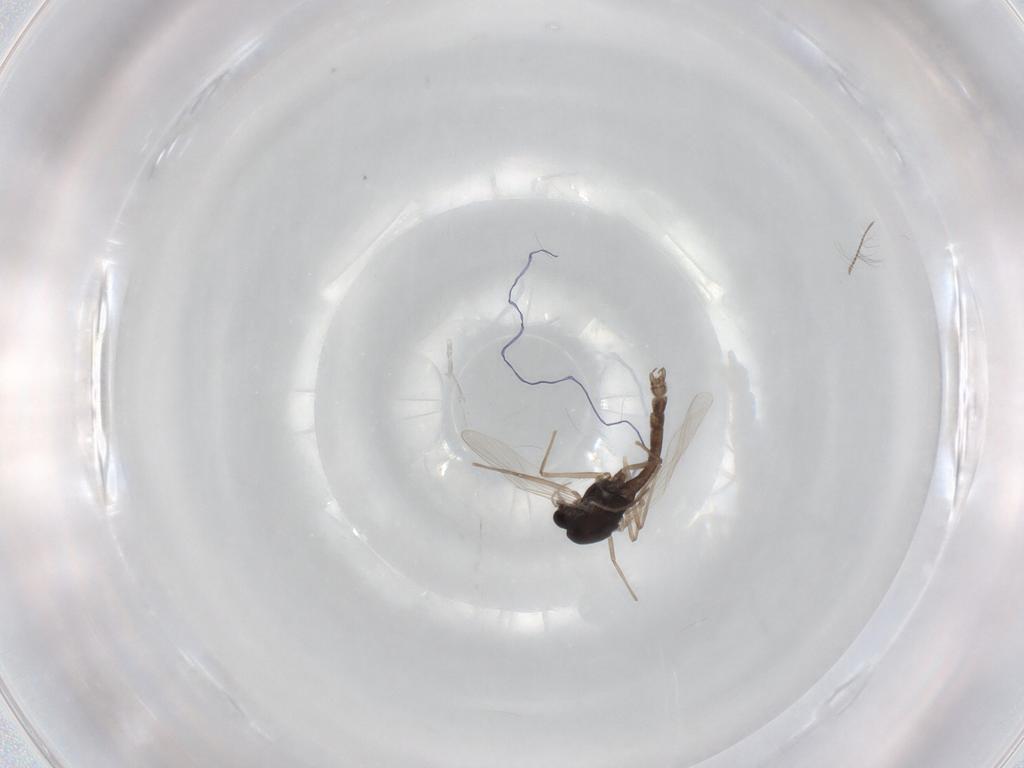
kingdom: Animalia
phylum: Arthropoda
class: Insecta
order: Diptera
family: Chironomidae
